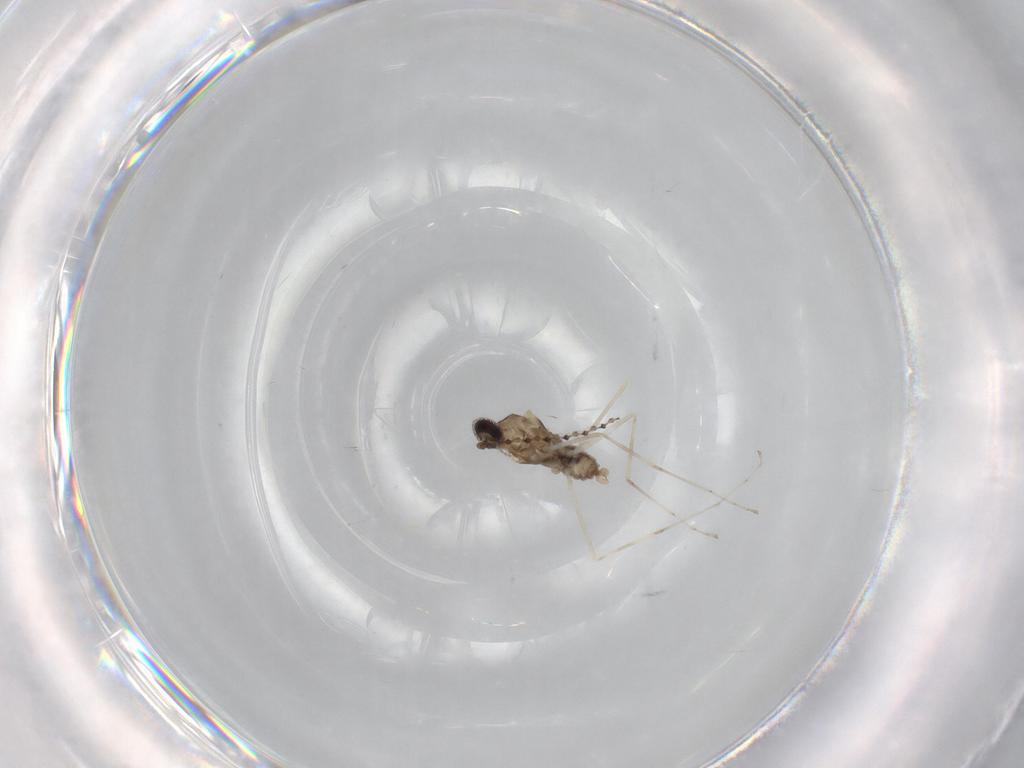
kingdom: Animalia
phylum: Arthropoda
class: Insecta
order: Diptera
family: Cecidomyiidae
